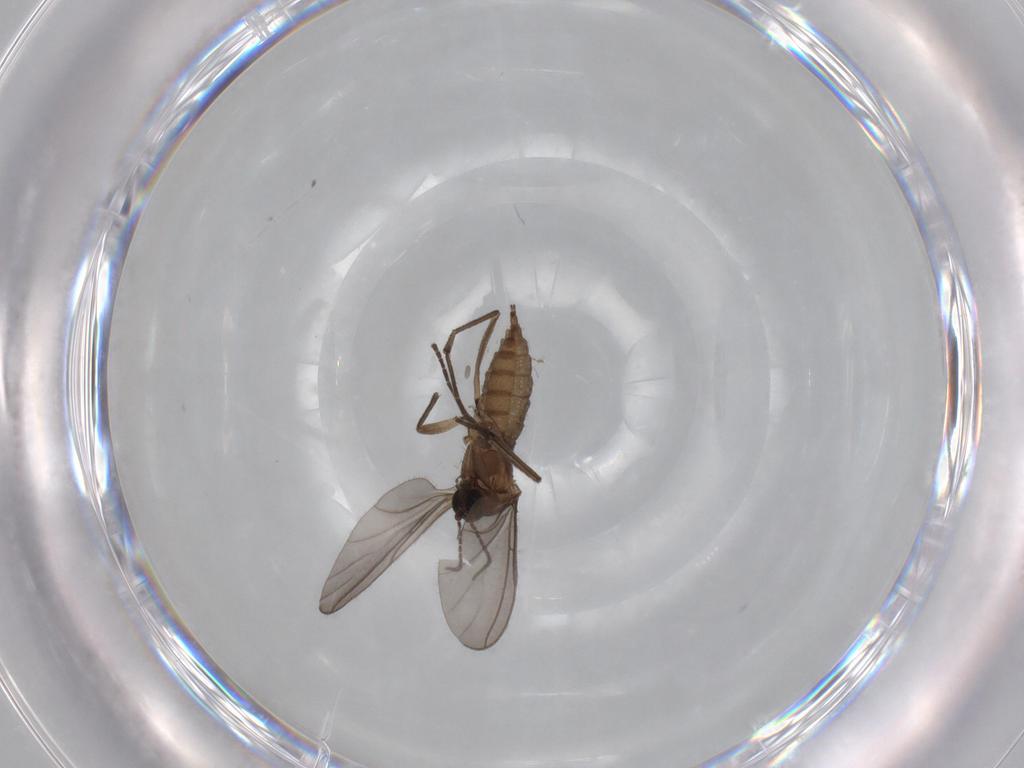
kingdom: Animalia
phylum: Arthropoda
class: Insecta
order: Diptera
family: Sciaridae
